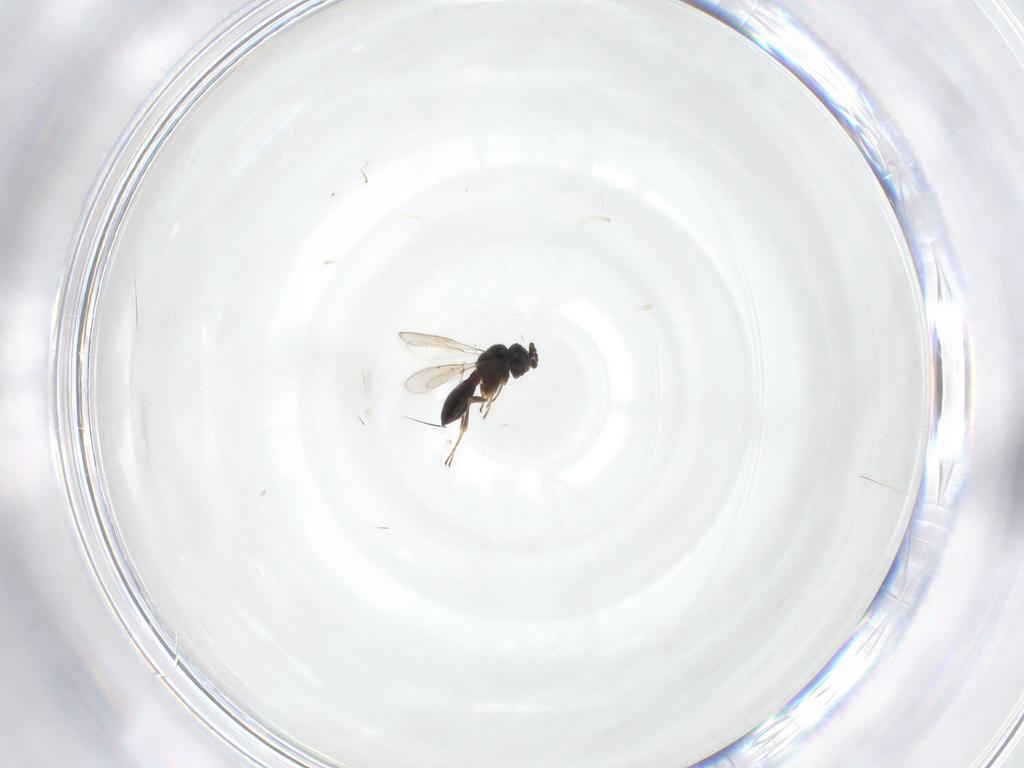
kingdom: Animalia
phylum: Arthropoda
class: Insecta
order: Hymenoptera
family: Scelionidae
